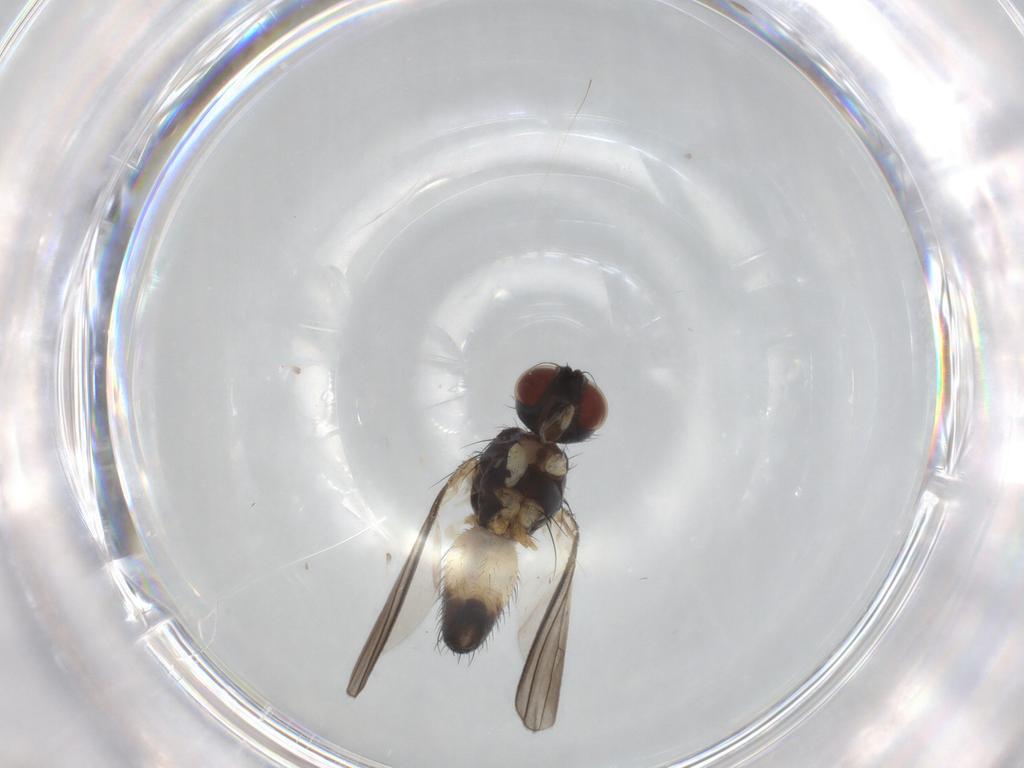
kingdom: Animalia
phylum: Arthropoda
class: Insecta
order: Diptera
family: Muscidae
